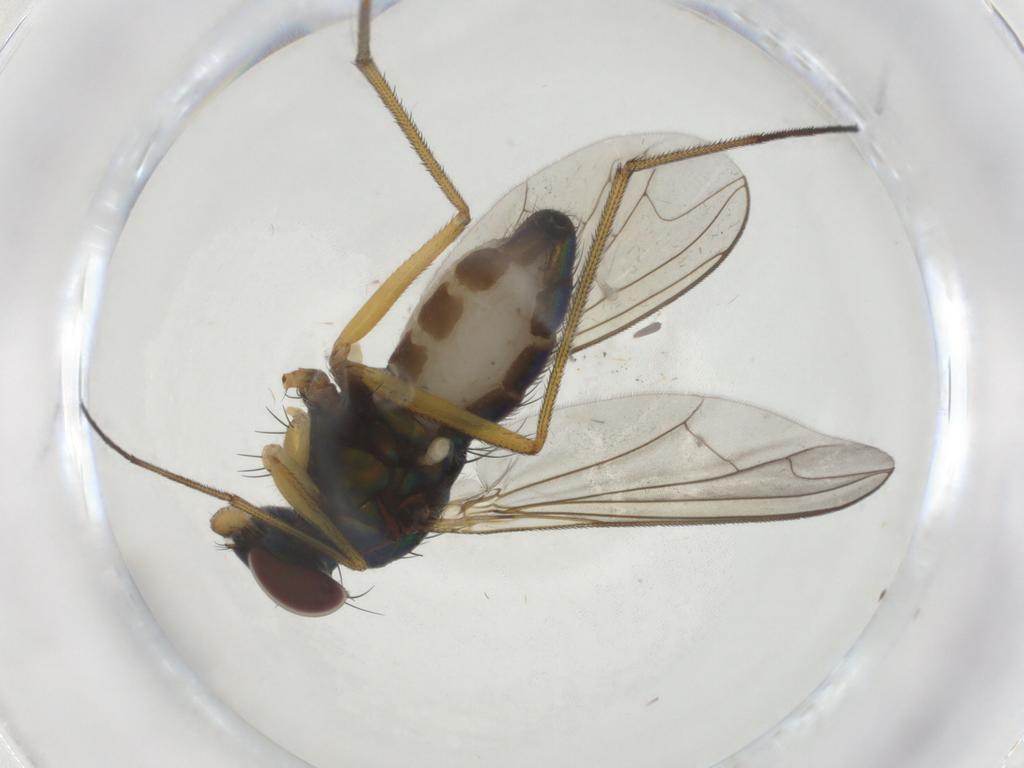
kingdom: Animalia
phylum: Arthropoda
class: Insecta
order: Diptera
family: Dolichopodidae
